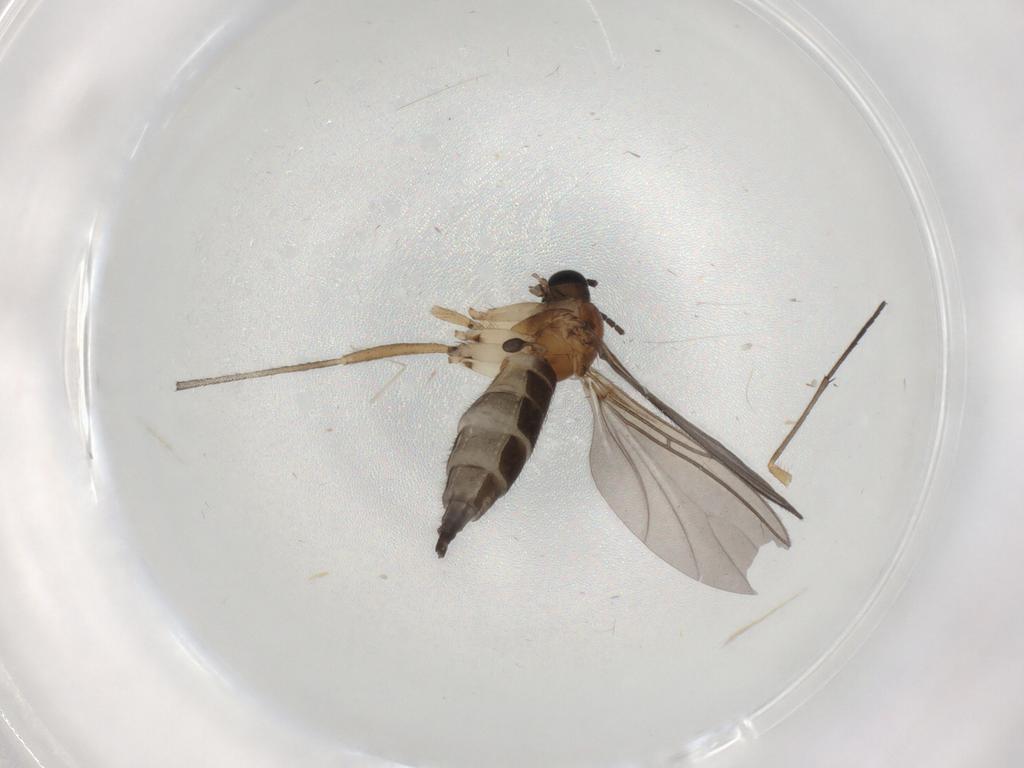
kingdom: Animalia
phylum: Arthropoda
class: Insecta
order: Diptera
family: Sciaridae
